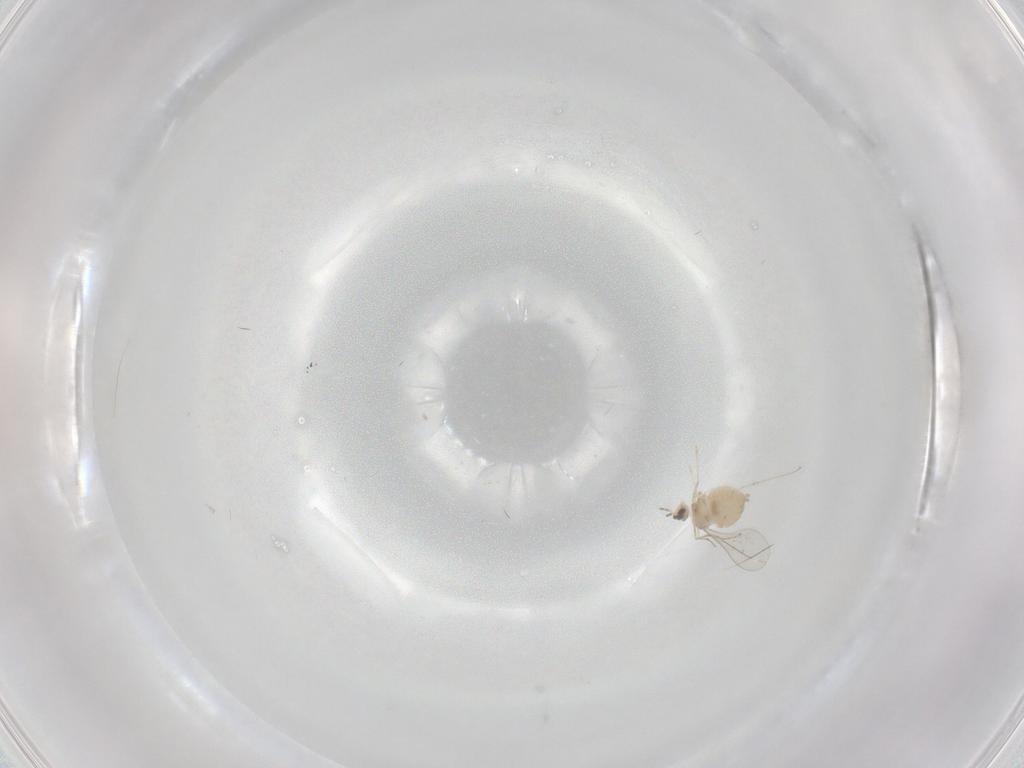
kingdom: Animalia
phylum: Arthropoda
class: Insecta
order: Diptera
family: Cecidomyiidae
